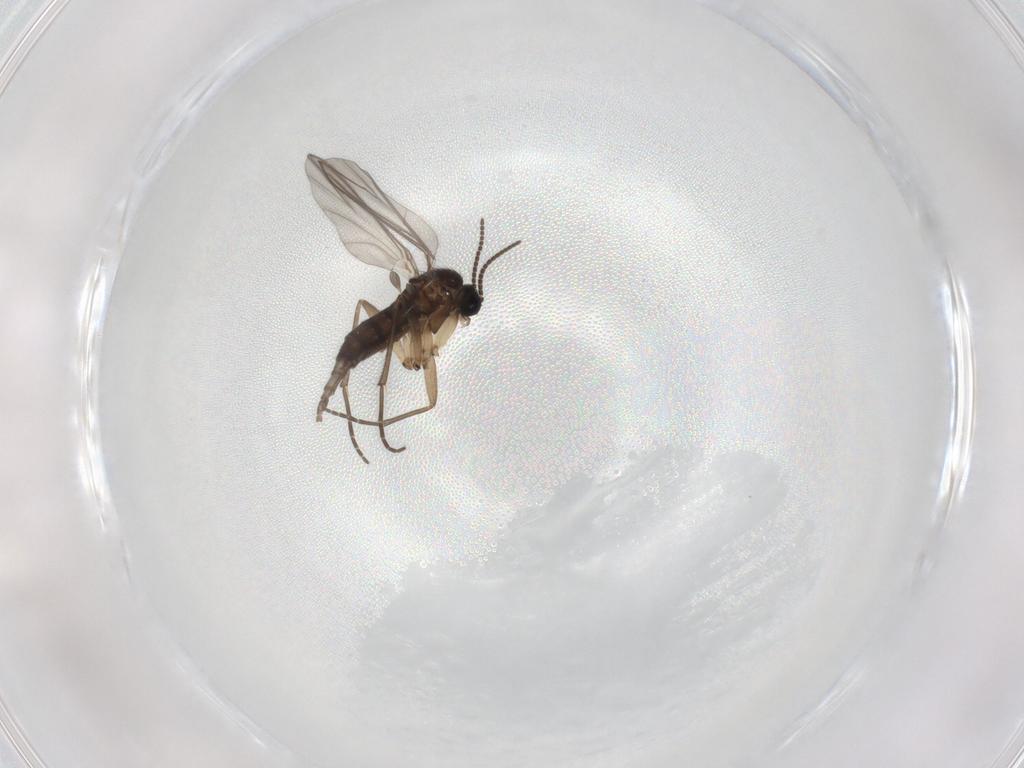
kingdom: Animalia
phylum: Arthropoda
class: Insecta
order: Diptera
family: Sciaridae
